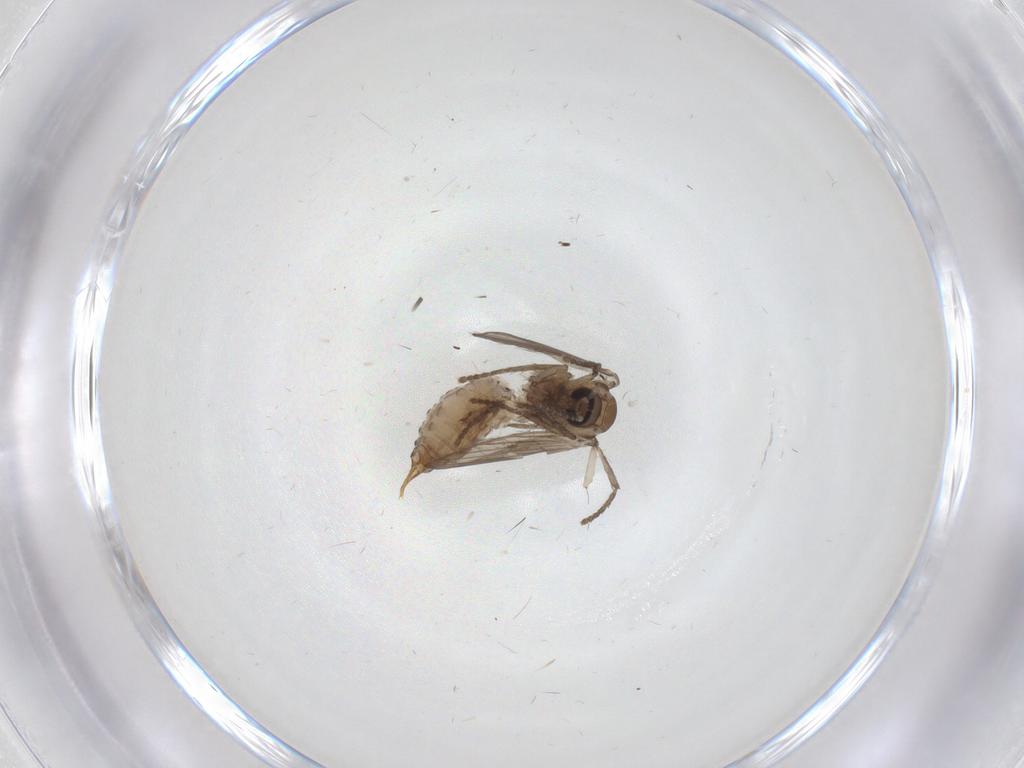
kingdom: Animalia
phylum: Arthropoda
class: Insecta
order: Diptera
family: Limoniidae
